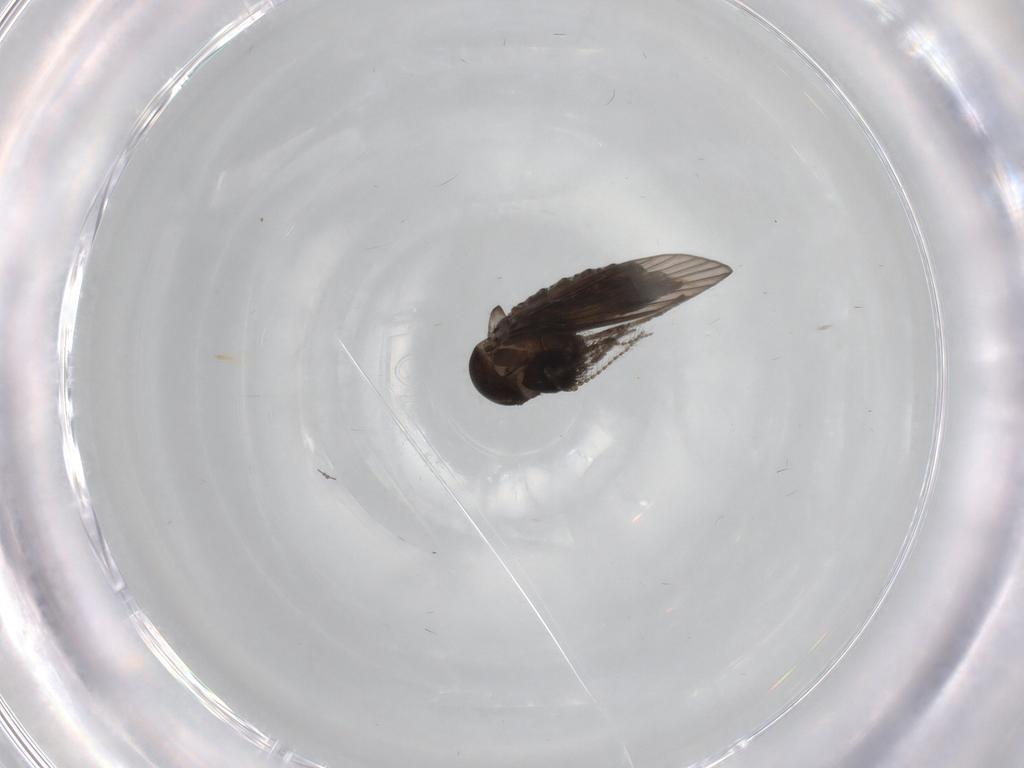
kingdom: Animalia
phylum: Arthropoda
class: Insecta
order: Diptera
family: Psychodidae
